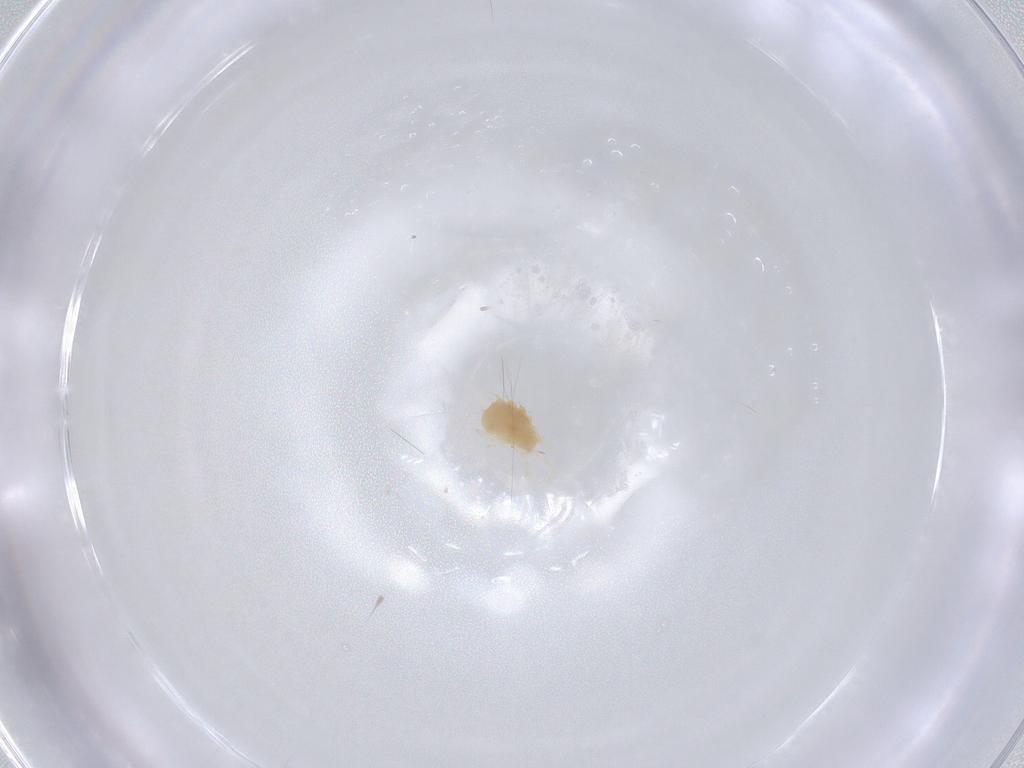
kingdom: Animalia
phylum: Arthropoda
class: Arachnida
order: Trombidiformes
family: Tetranychidae
